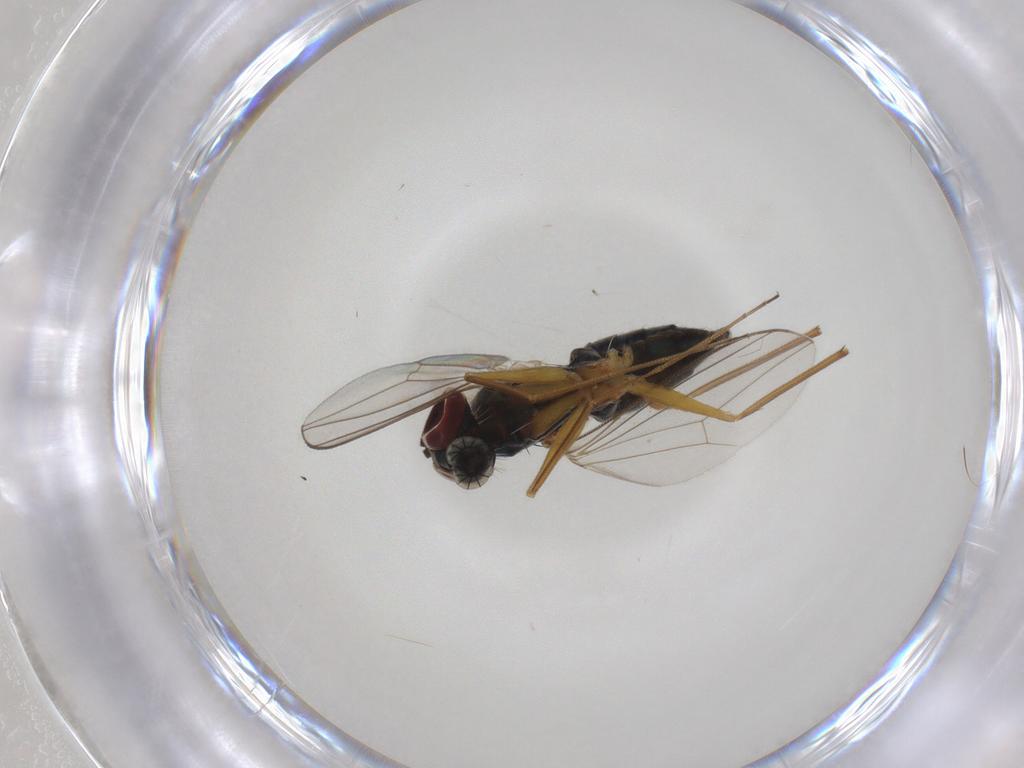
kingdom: Animalia
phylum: Arthropoda
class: Insecta
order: Diptera
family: Dolichopodidae
